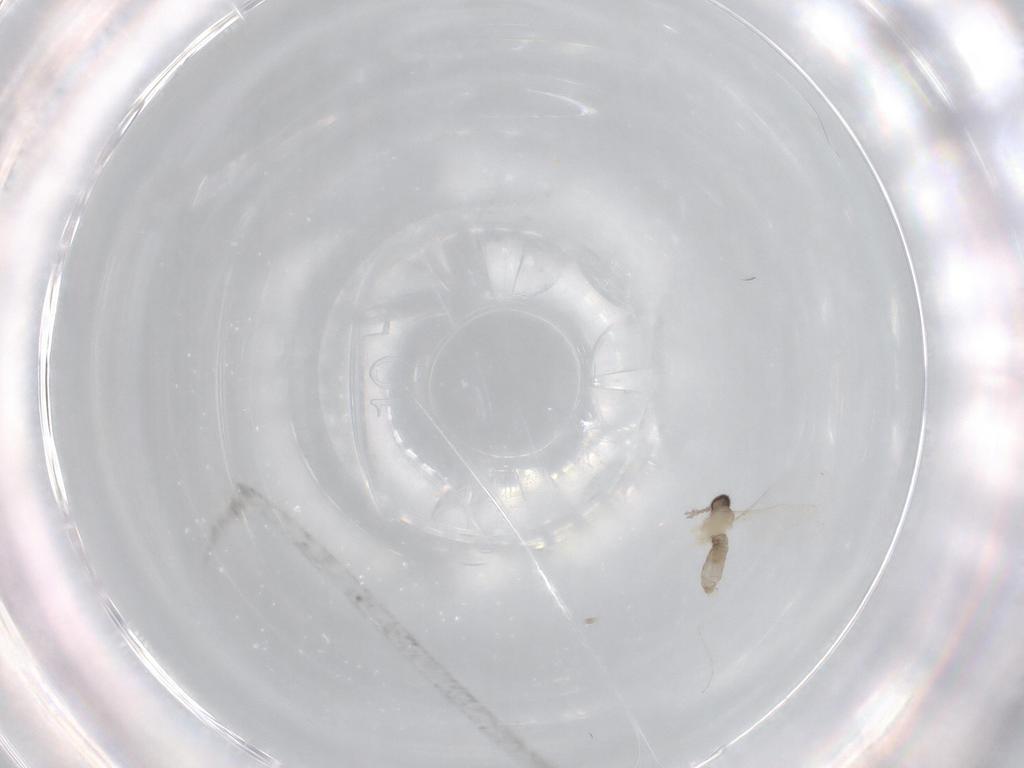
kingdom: Animalia
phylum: Arthropoda
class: Insecta
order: Diptera
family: Cecidomyiidae
